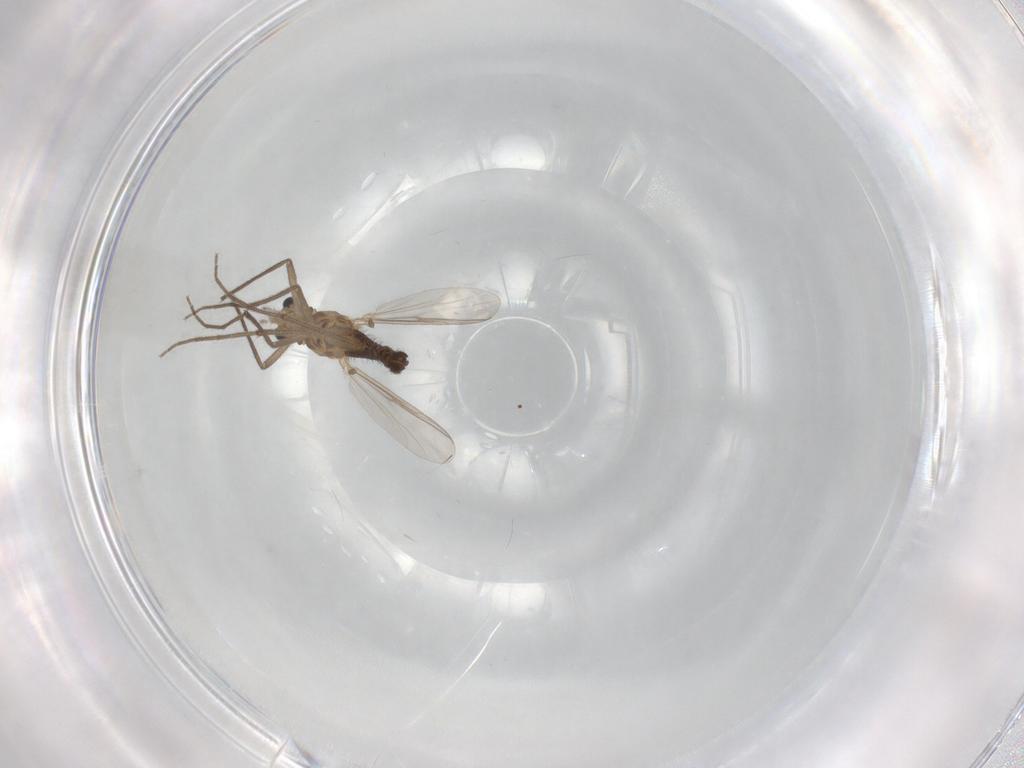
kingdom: Animalia
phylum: Arthropoda
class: Insecta
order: Diptera
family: Chironomidae
